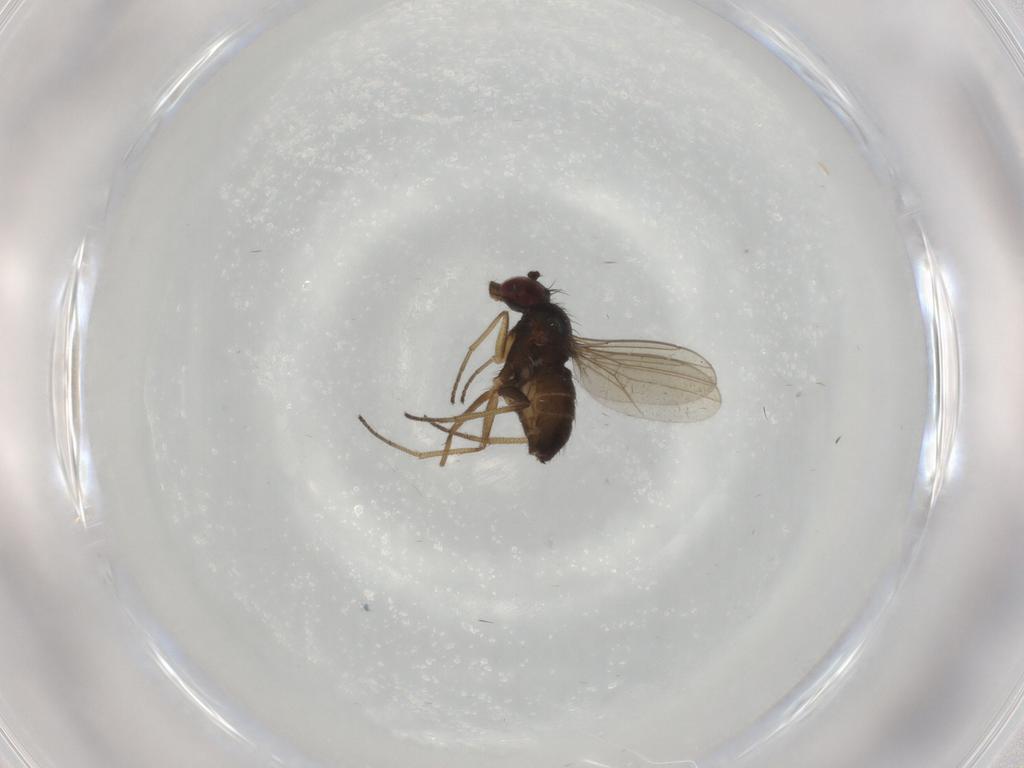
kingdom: Animalia
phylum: Arthropoda
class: Insecta
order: Diptera
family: Dolichopodidae
